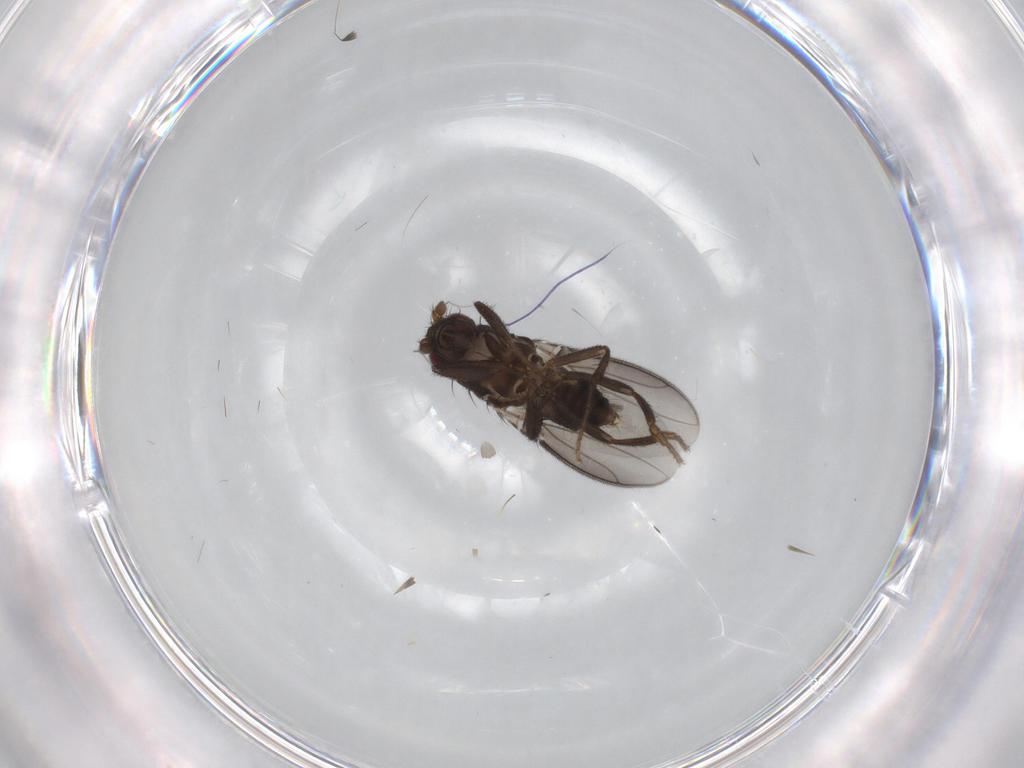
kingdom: Animalia
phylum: Arthropoda
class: Insecta
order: Diptera
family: Sphaeroceridae
